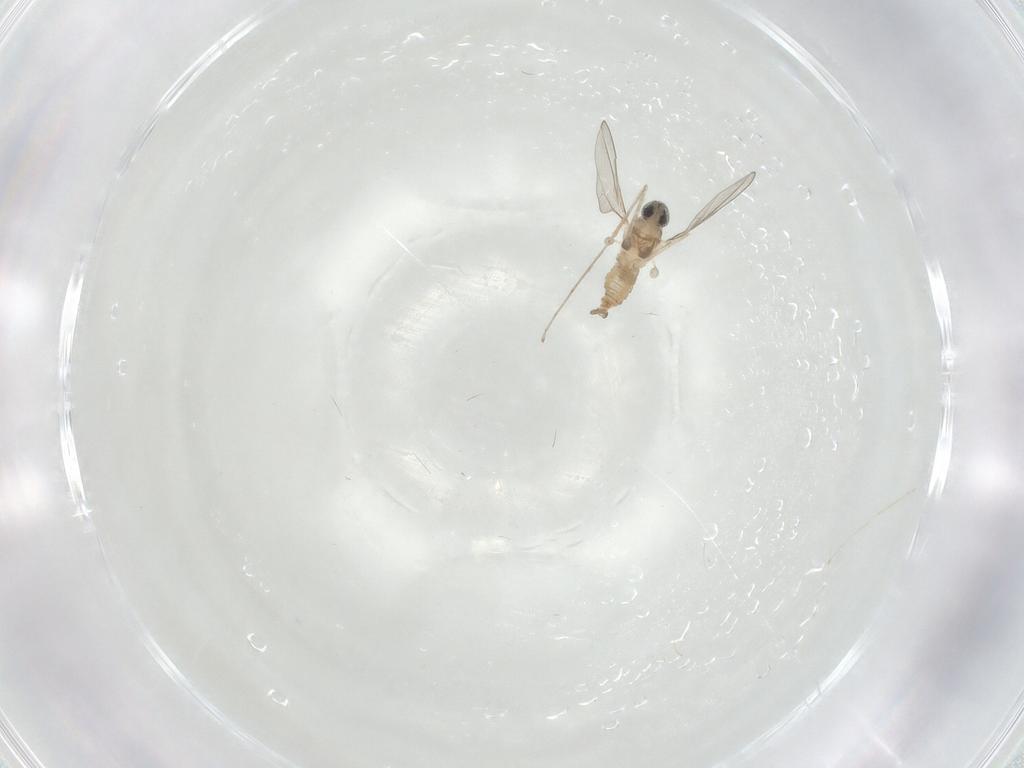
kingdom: Animalia
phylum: Arthropoda
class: Insecta
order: Diptera
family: Cecidomyiidae
